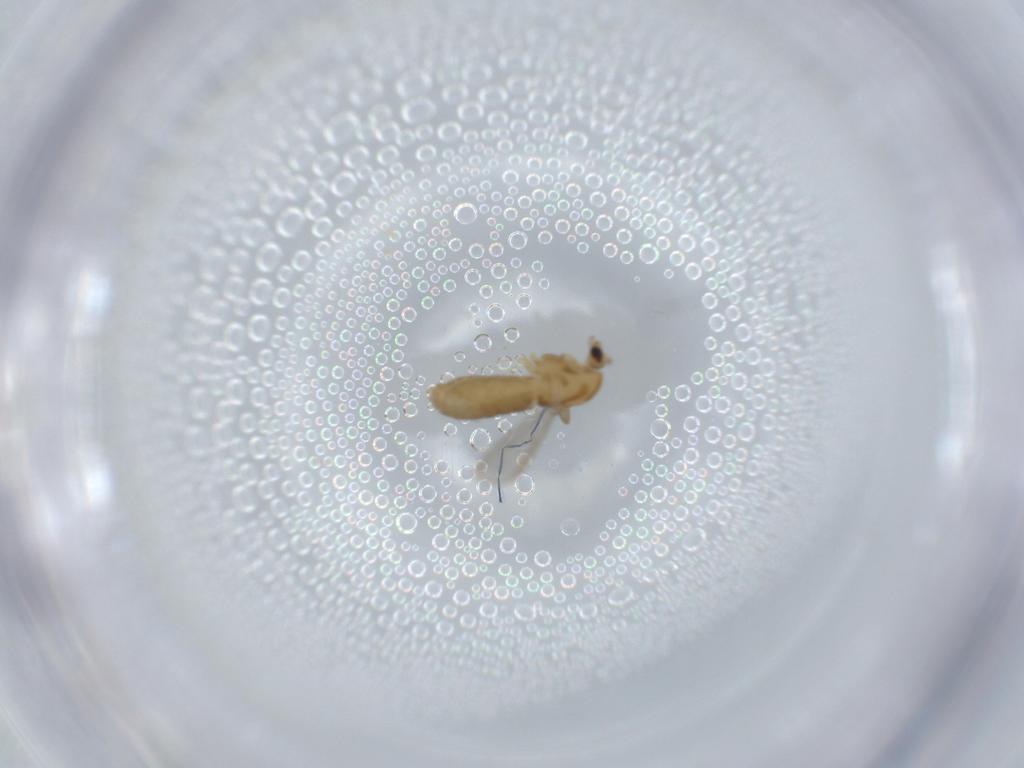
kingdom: Animalia
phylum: Arthropoda
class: Insecta
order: Diptera
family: Chironomidae
